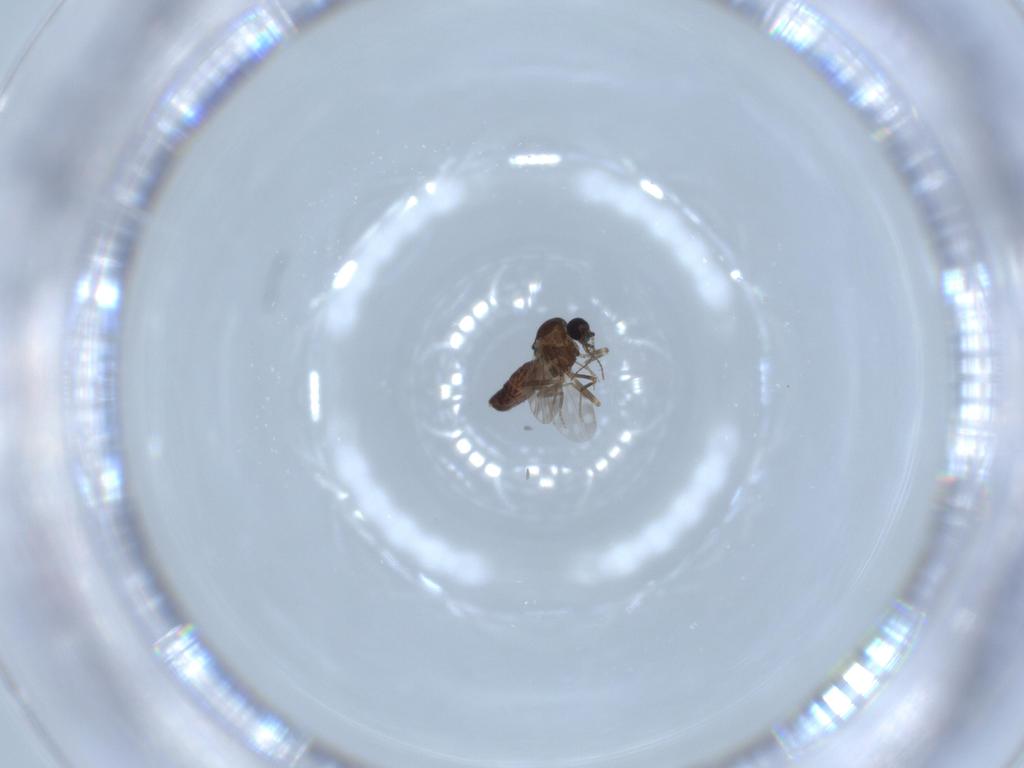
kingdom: Animalia
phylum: Arthropoda
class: Insecta
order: Diptera
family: Ceratopogonidae
